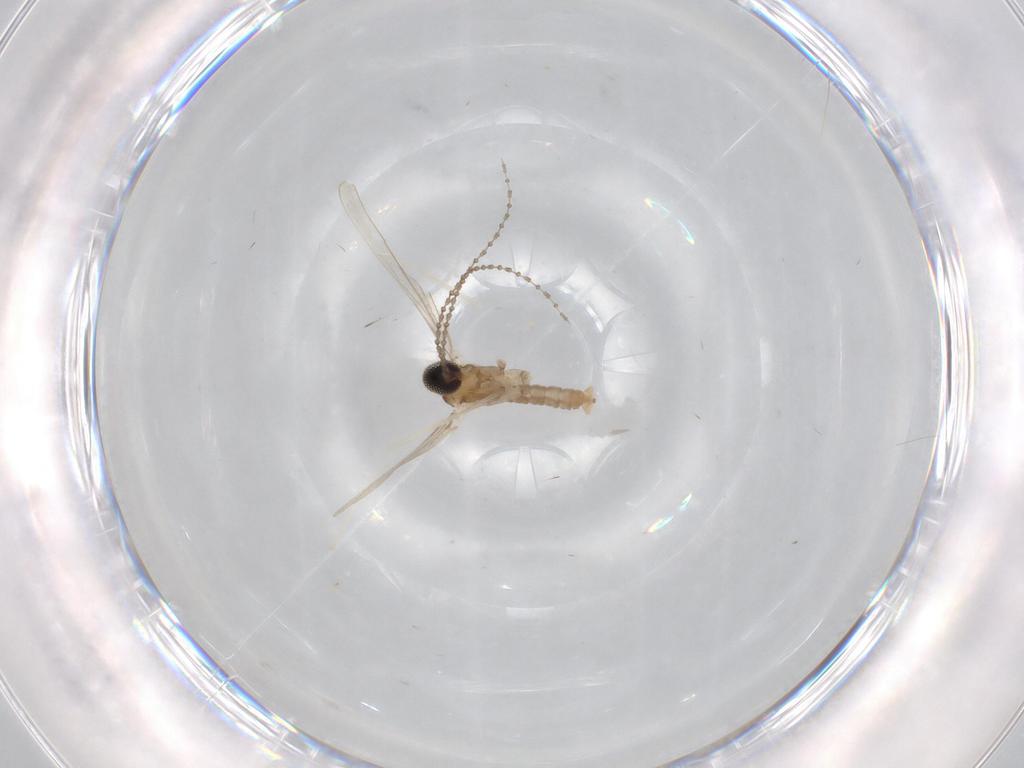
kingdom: Animalia
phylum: Arthropoda
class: Insecta
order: Diptera
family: Cecidomyiidae
